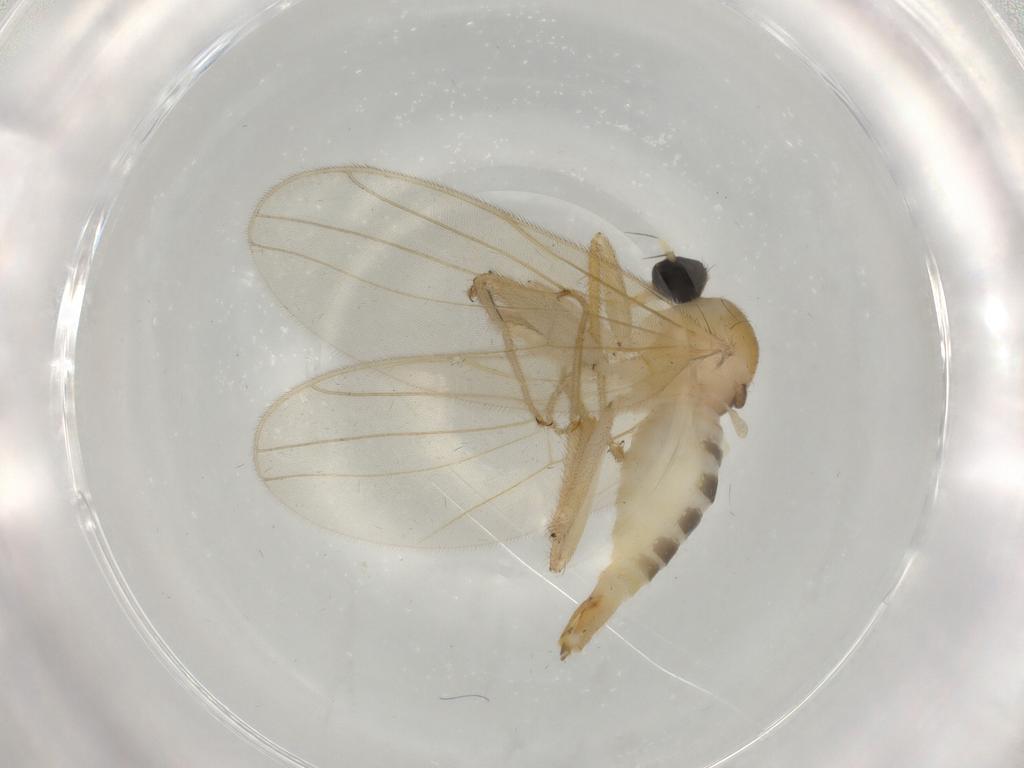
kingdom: Animalia
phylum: Arthropoda
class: Insecta
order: Diptera
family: Hybotidae
